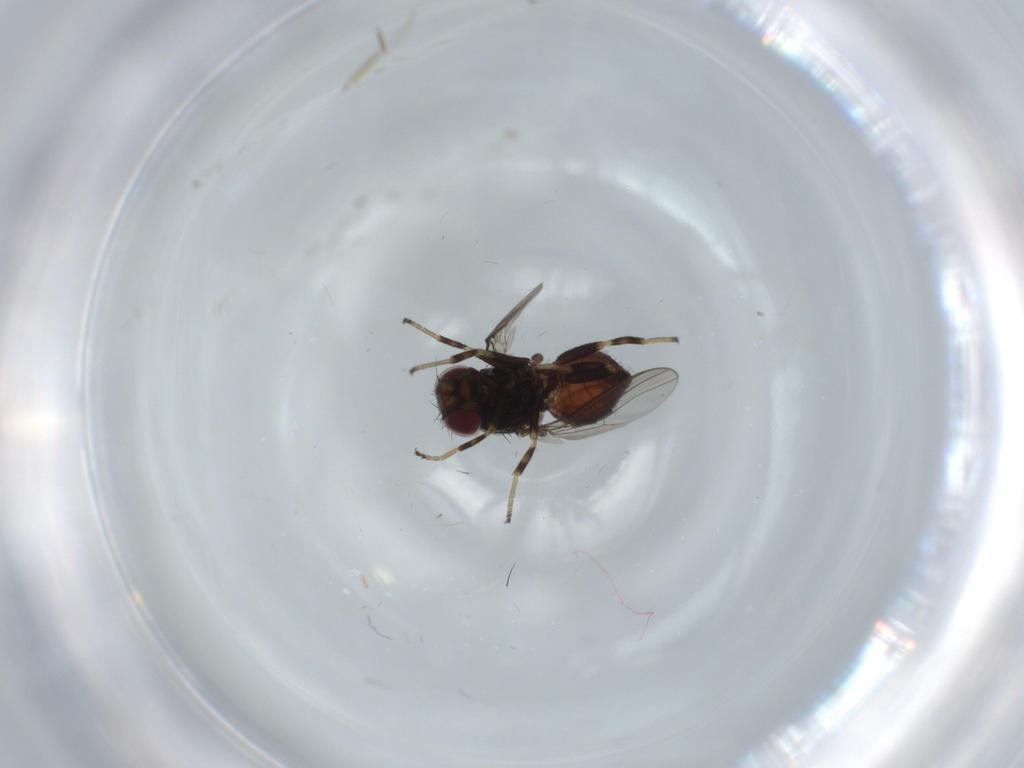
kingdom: Animalia
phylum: Arthropoda
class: Insecta
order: Diptera
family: Chloropidae
